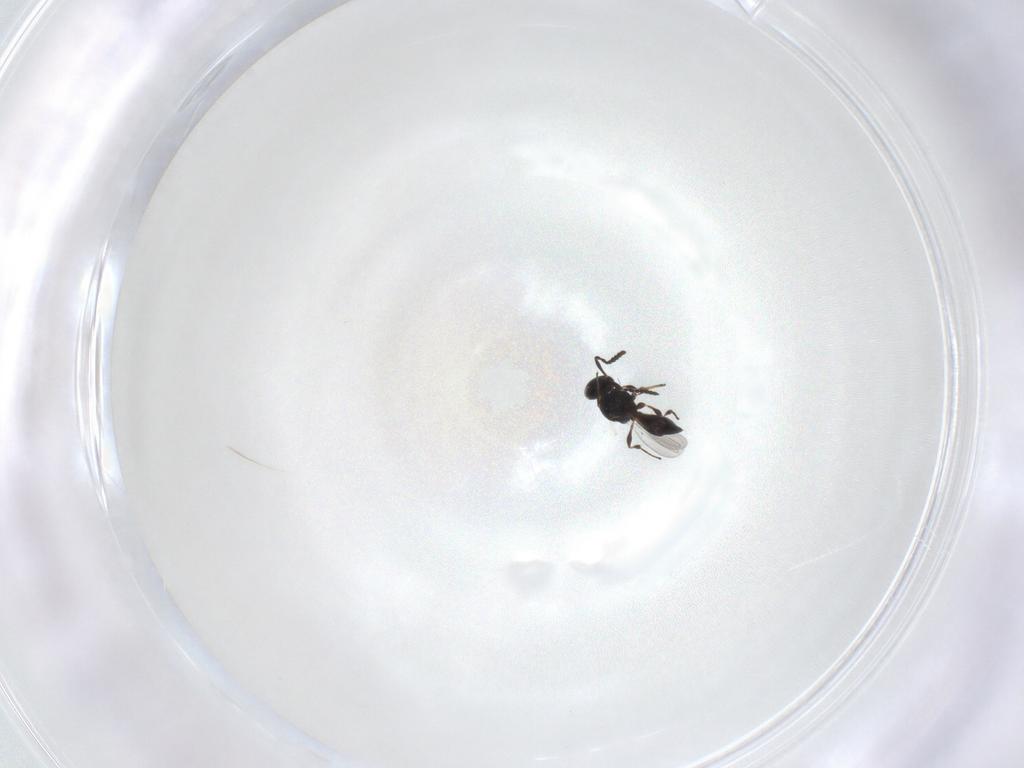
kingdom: Animalia
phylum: Arthropoda
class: Insecta
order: Hymenoptera
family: Platygastridae
